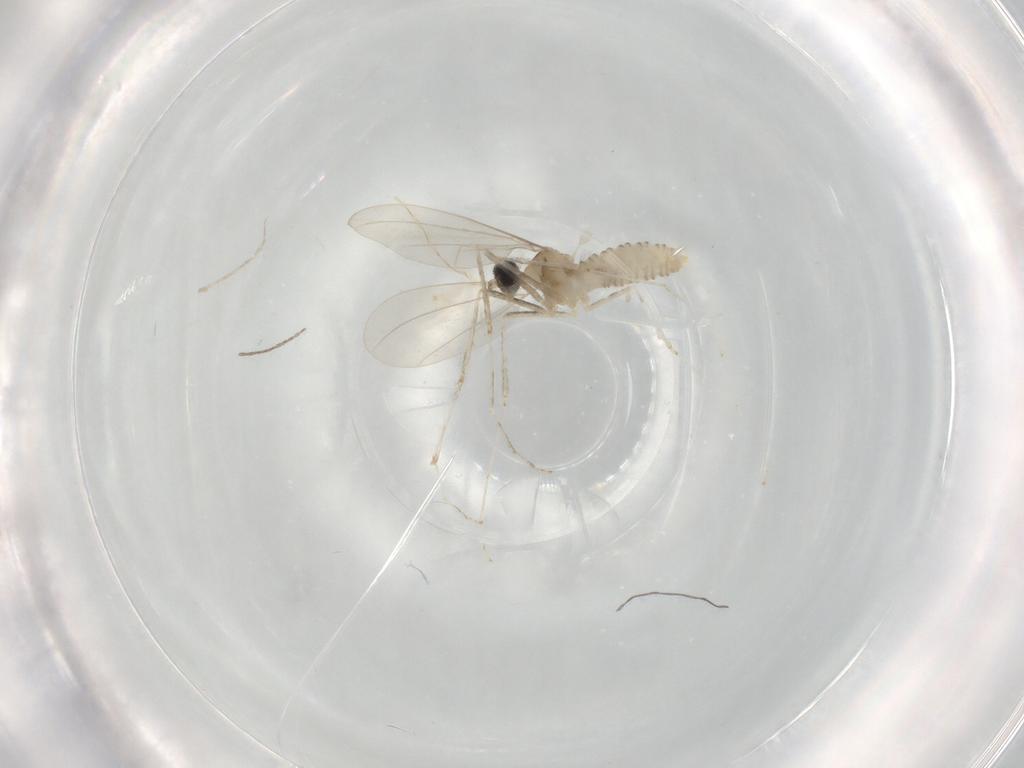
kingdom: Animalia
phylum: Arthropoda
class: Insecta
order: Diptera
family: Cecidomyiidae
